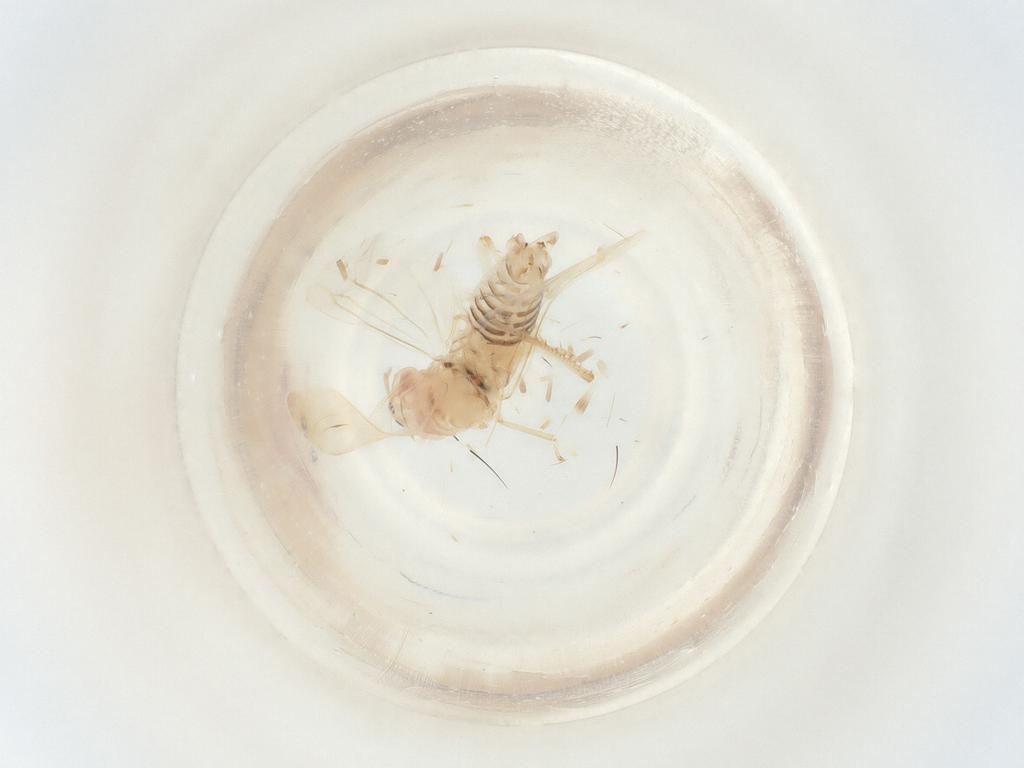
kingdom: Animalia
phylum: Arthropoda
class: Insecta
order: Hemiptera
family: Cicadellidae
